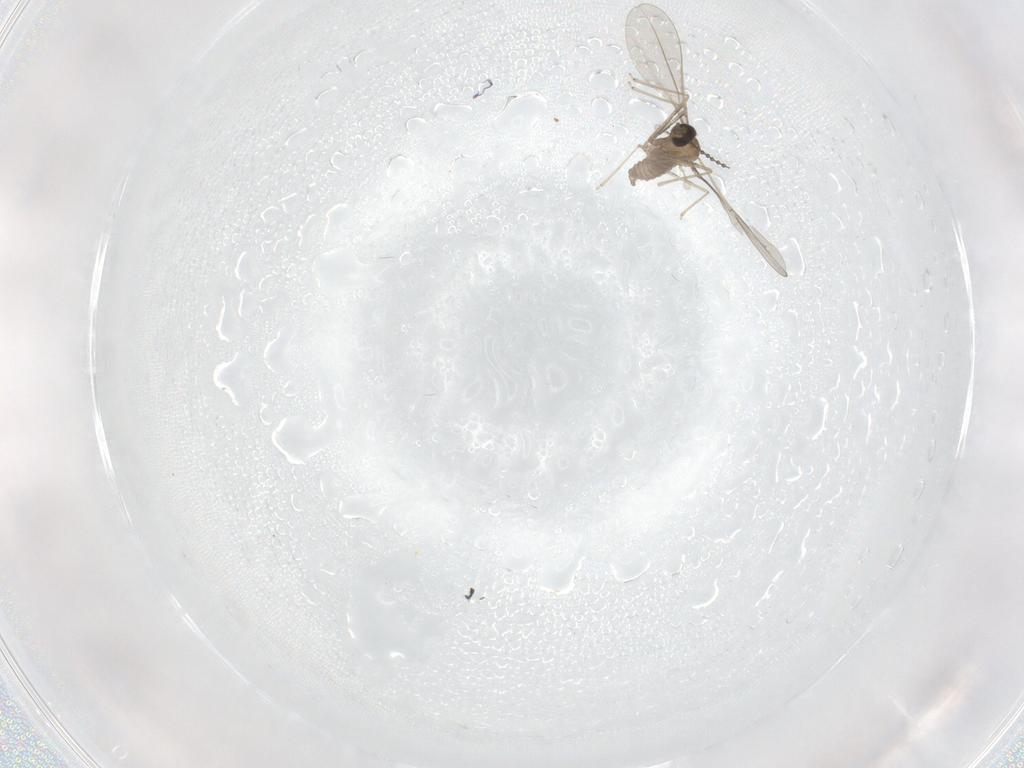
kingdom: Animalia
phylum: Arthropoda
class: Insecta
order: Diptera
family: Cecidomyiidae
